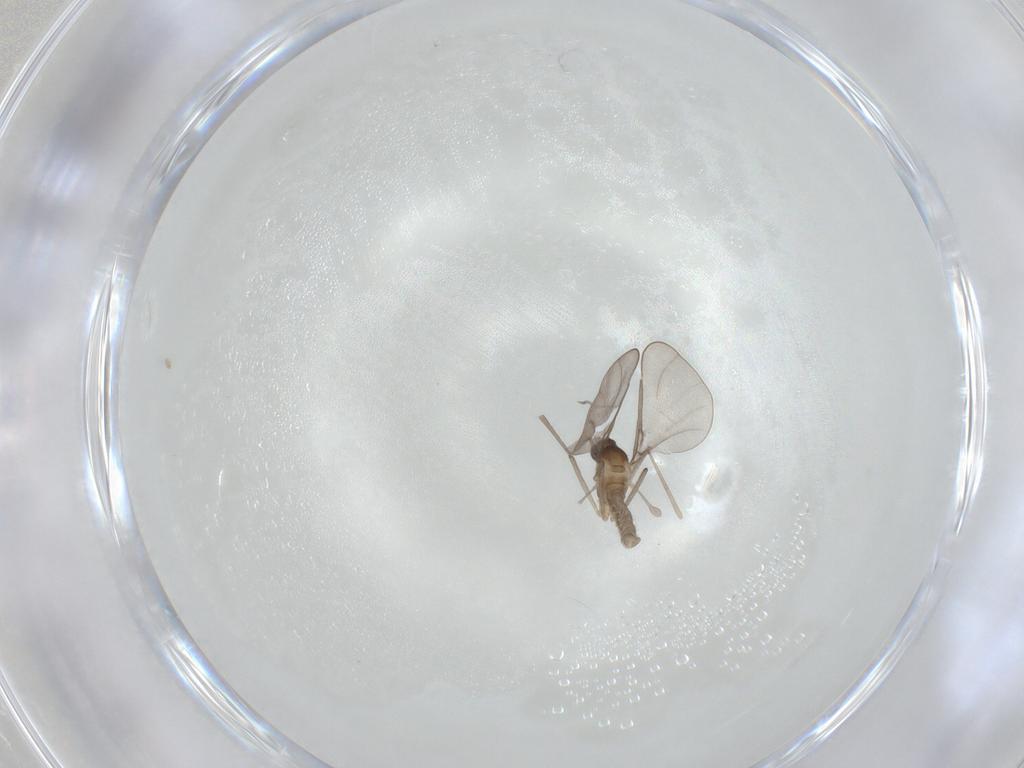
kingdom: Animalia
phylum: Arthropoda
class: Insecta
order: Diptera
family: Cecidomyiidae
